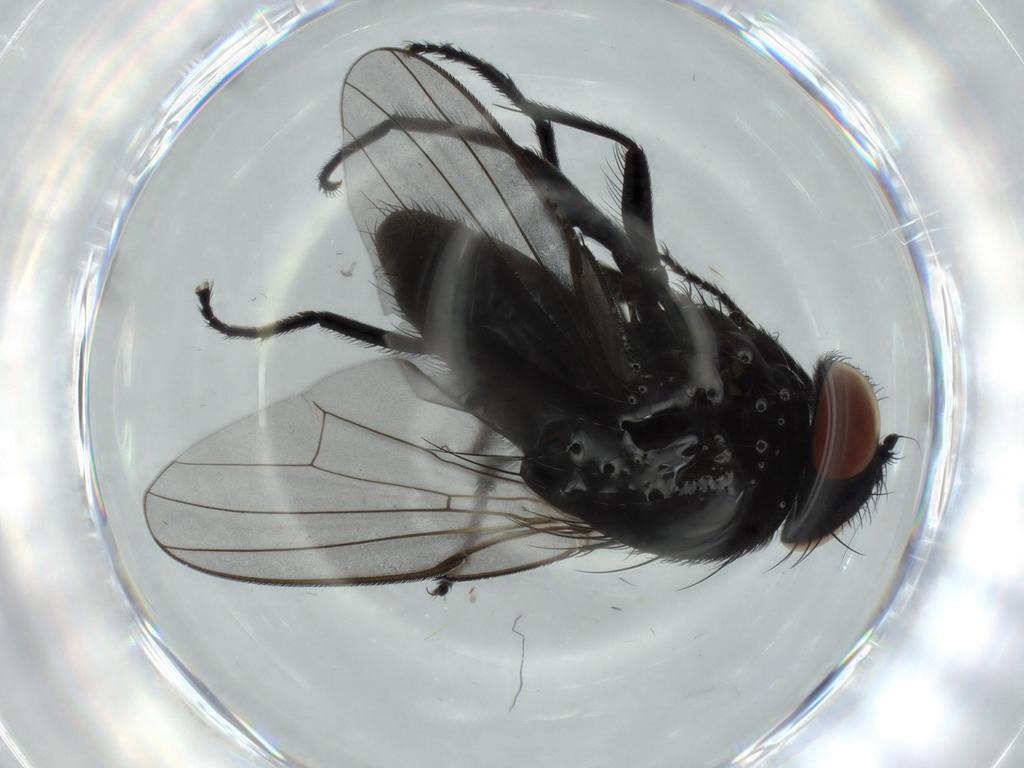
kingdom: Animalia
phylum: Arthropoda
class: Insecta
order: Diptera
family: Milichiidae
